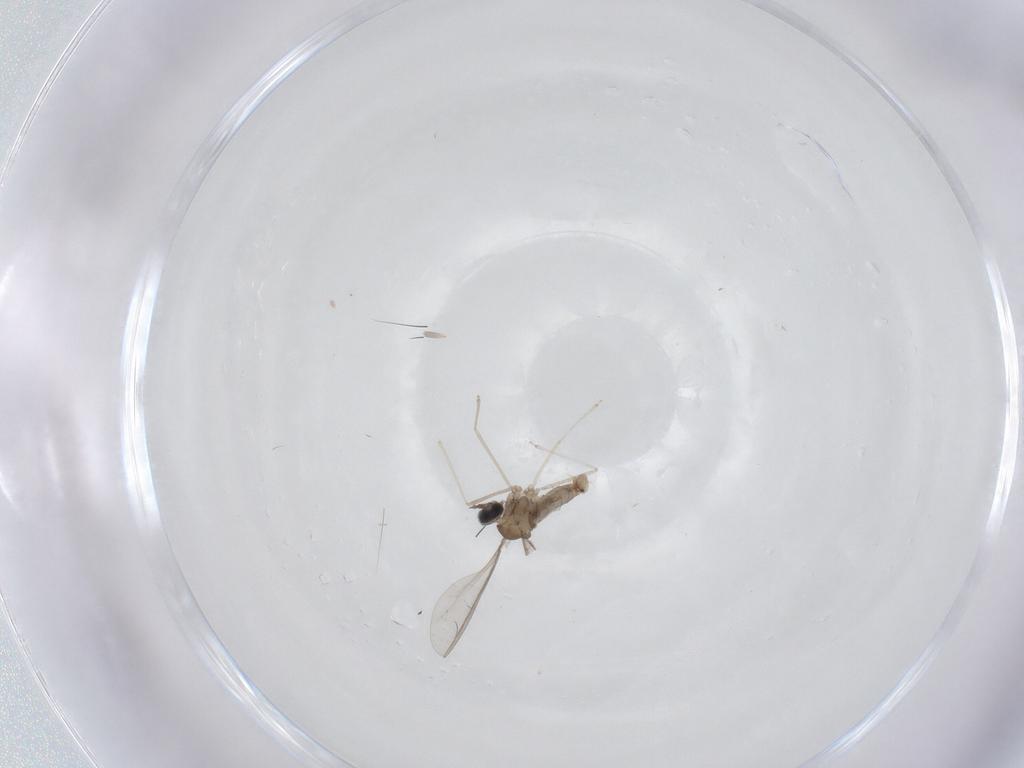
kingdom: Animalia
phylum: Arthropoda
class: Insecta
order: Diptera
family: Cecidomyiidae
